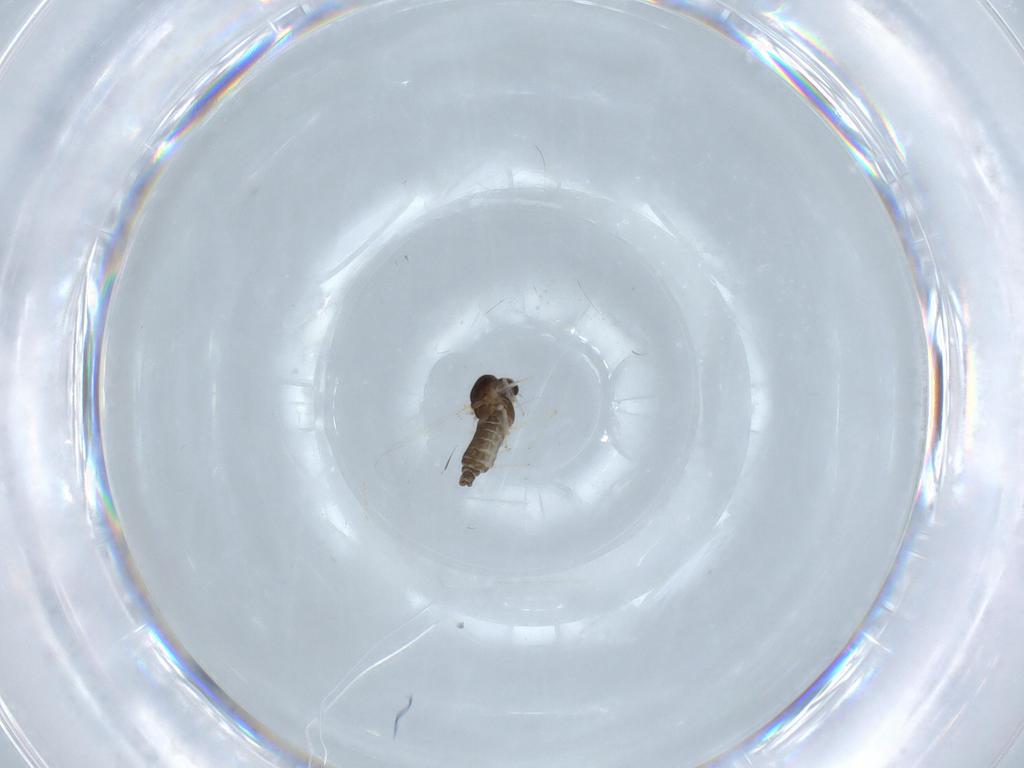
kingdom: Animalia
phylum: Arthropoda
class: Insecta
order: Diptera
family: Chironomidae
